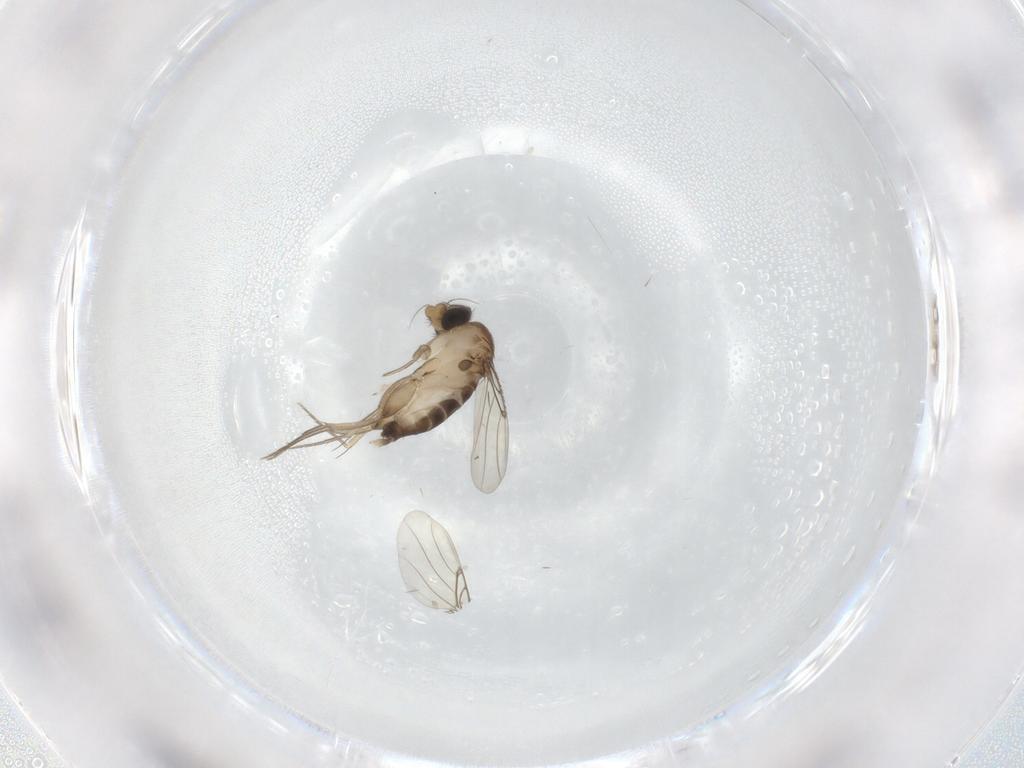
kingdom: Animalia
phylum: Arthropoda
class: Insecta
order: Diptera
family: Phoridae
